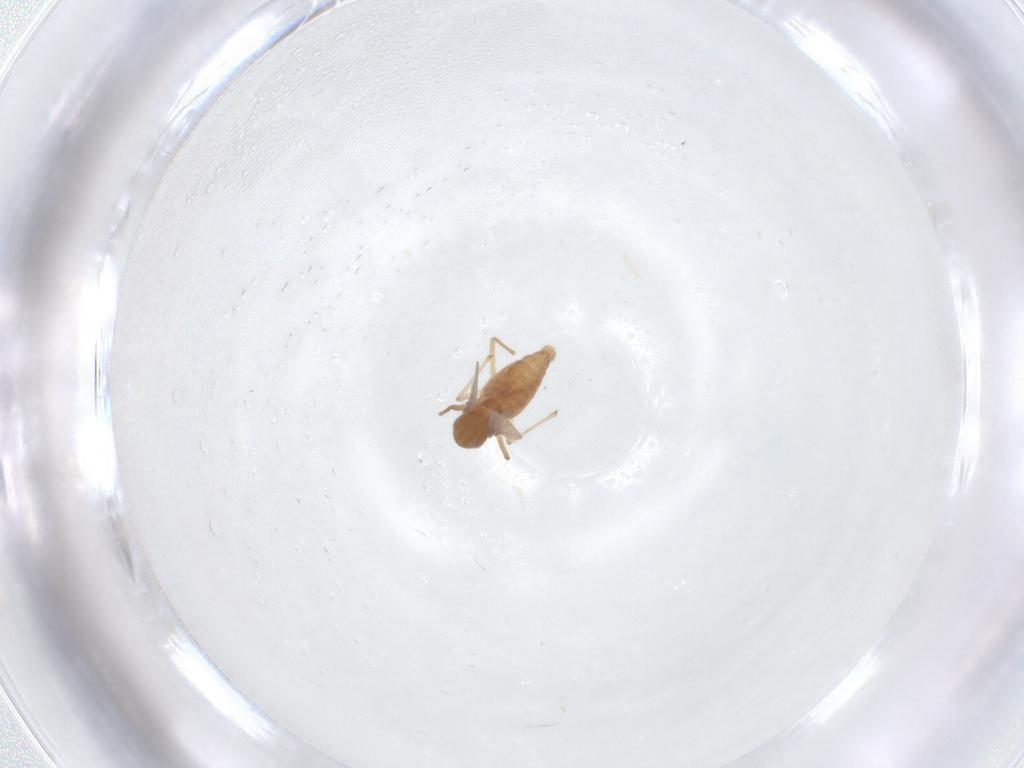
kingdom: Animalia
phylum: Arthropoda
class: Insecta
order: Diptera
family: Chironomidae
